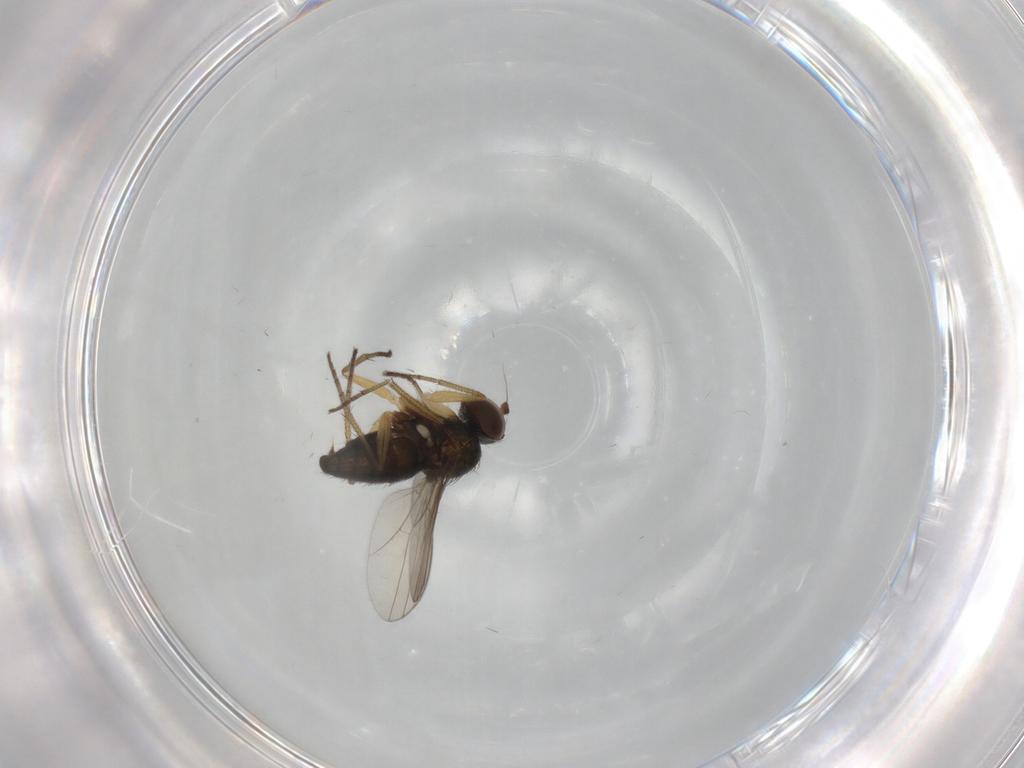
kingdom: Animalia
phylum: Arthropoda
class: Insecta
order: Diptera
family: Dolichopodidae
